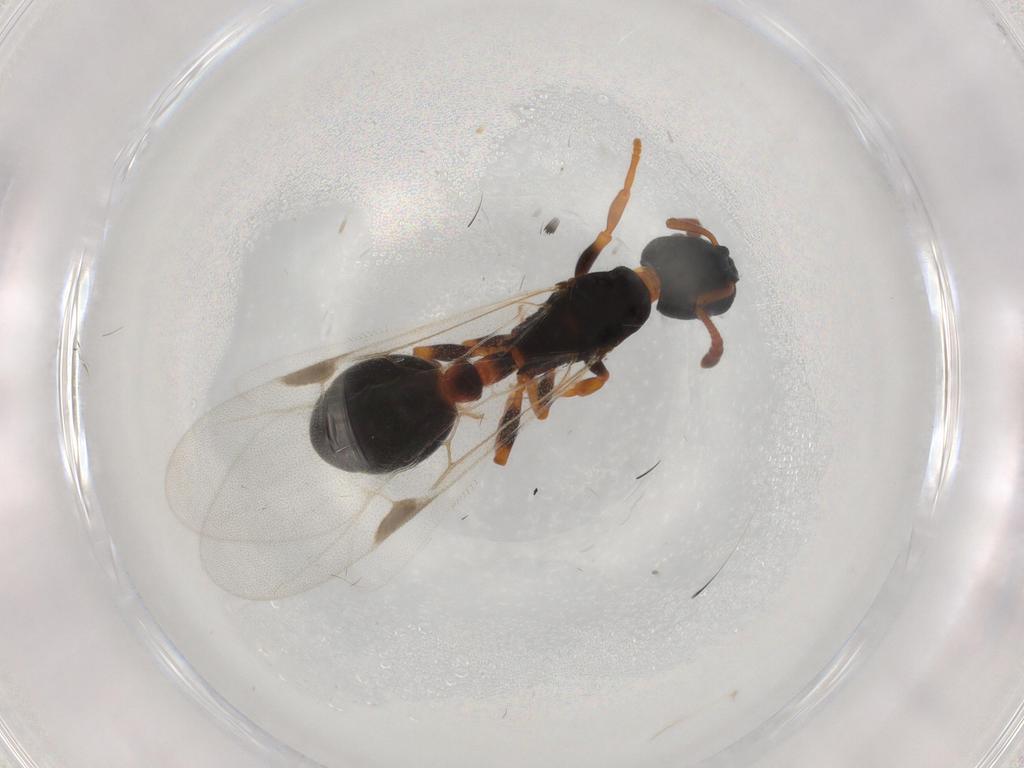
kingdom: Animalia
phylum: Arthropoda
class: Insecta
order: Hymenoptera
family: Formicidae
